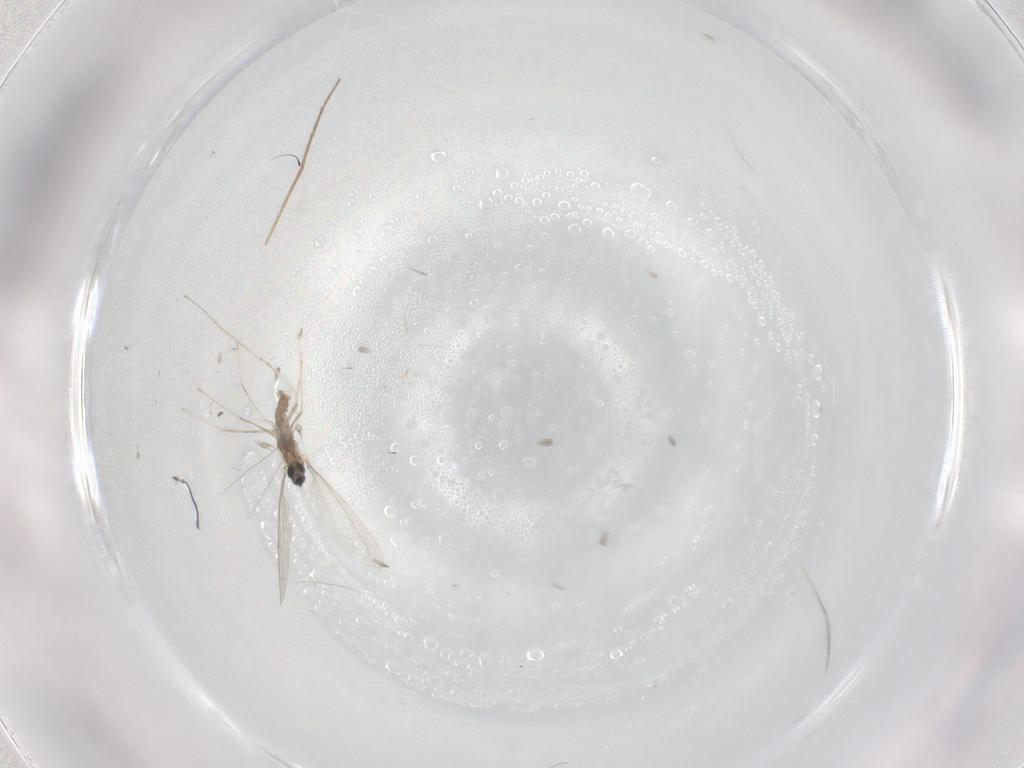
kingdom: Animalia
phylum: Arthropoda
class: Insecta
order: Diptera
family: Cecidomyiidae
